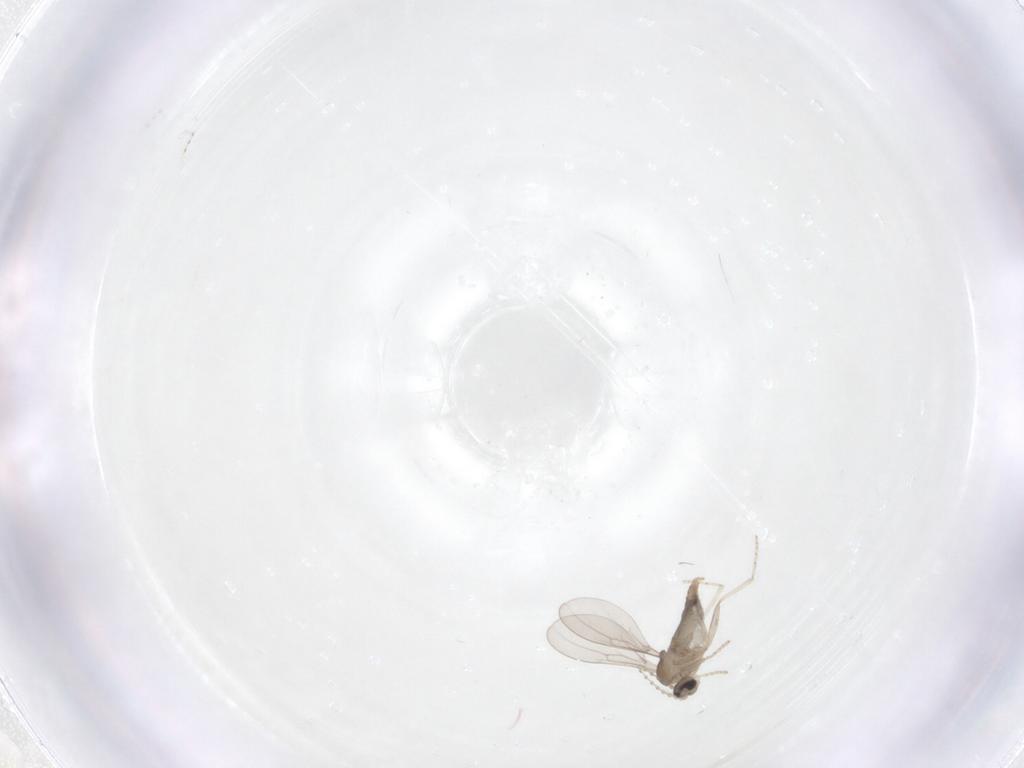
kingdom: Animalia
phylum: Arthropoda
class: Insecta
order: Diptera
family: Cecidomyiidae
